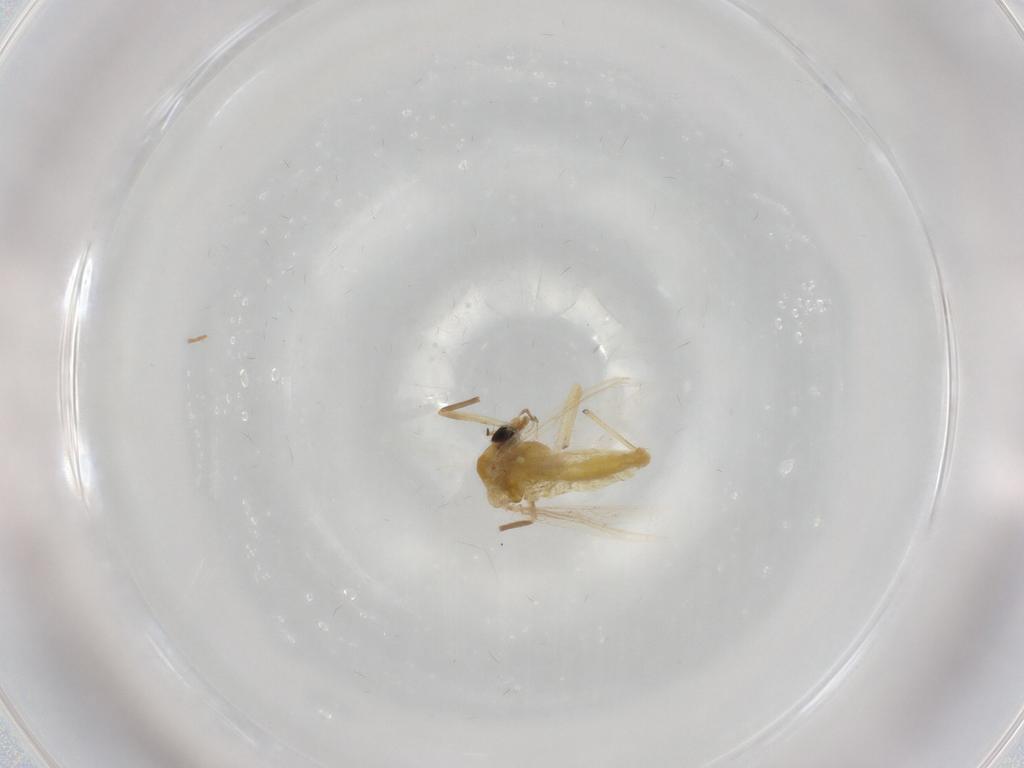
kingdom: Animalia
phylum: Arthropoda
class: Insecta
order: Diptera
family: Chironomidae
